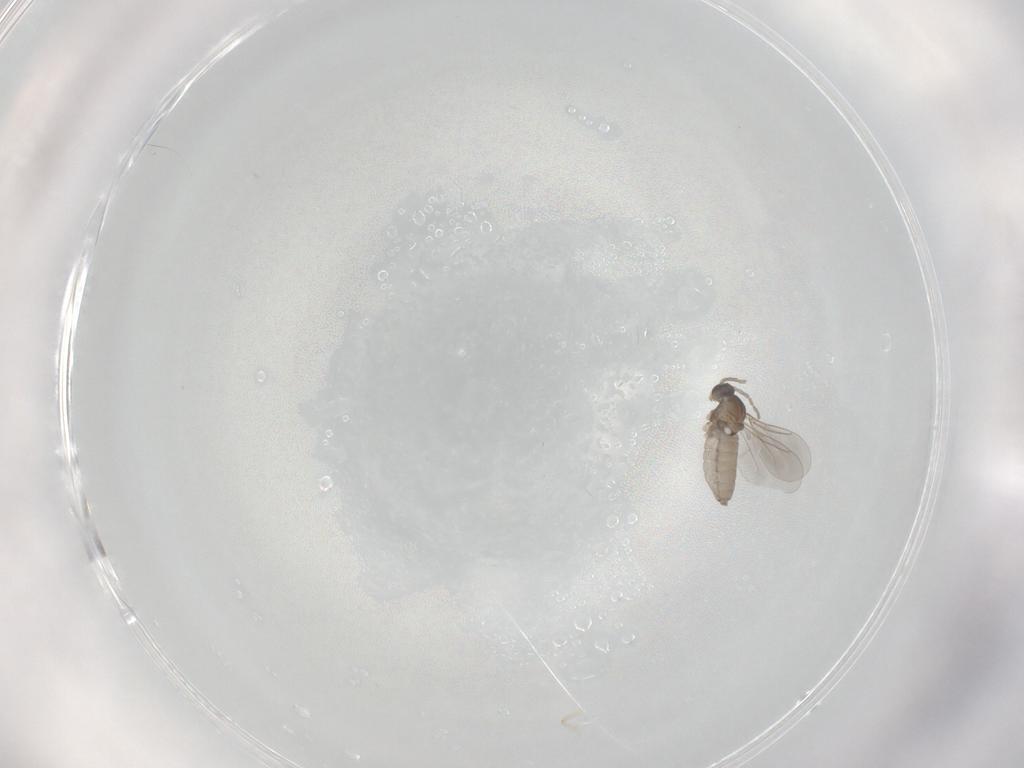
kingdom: Animalia
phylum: Arthropoda
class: Insecta
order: Diptera
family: Cecidomyiidae
